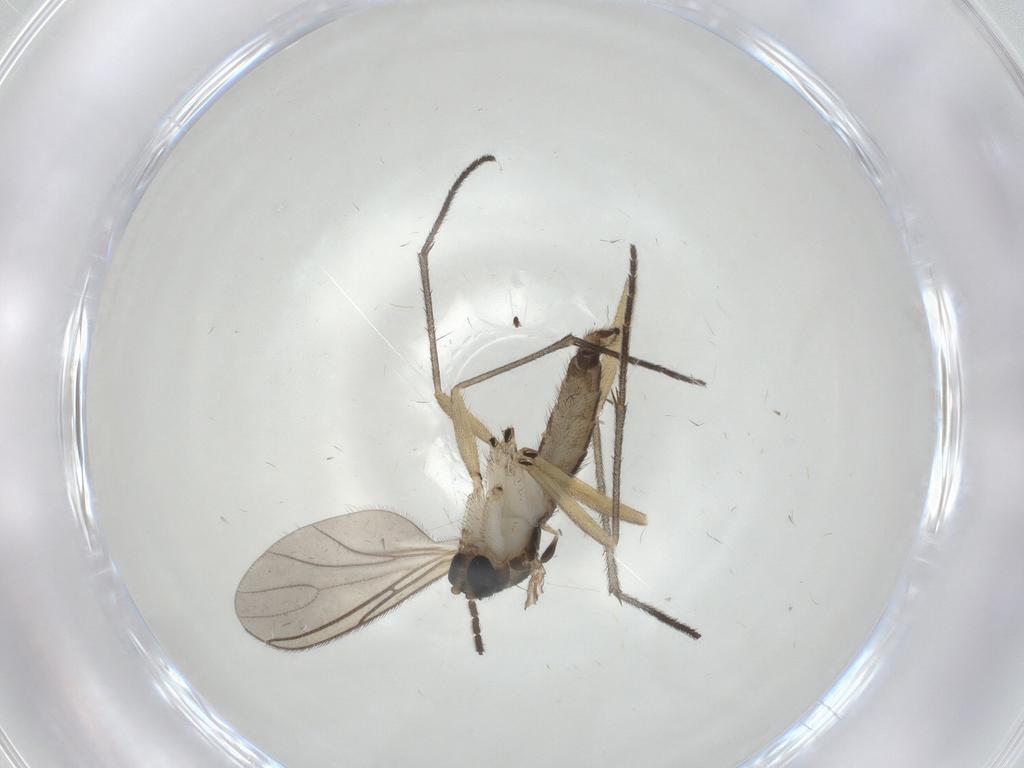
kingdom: Animalia
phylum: Arthropoda
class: Insecta
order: Diptera
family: Sciaridae
